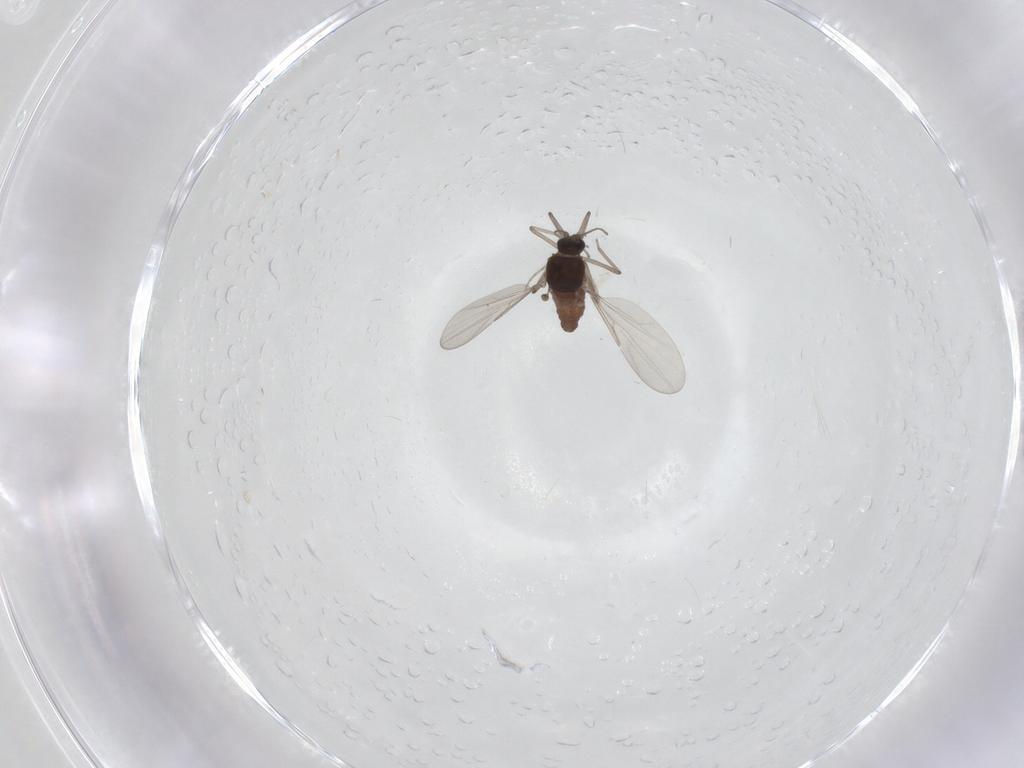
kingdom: Animalia
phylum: Arthropoda
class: Insecta
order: Diptera
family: Ceratopogonidae
